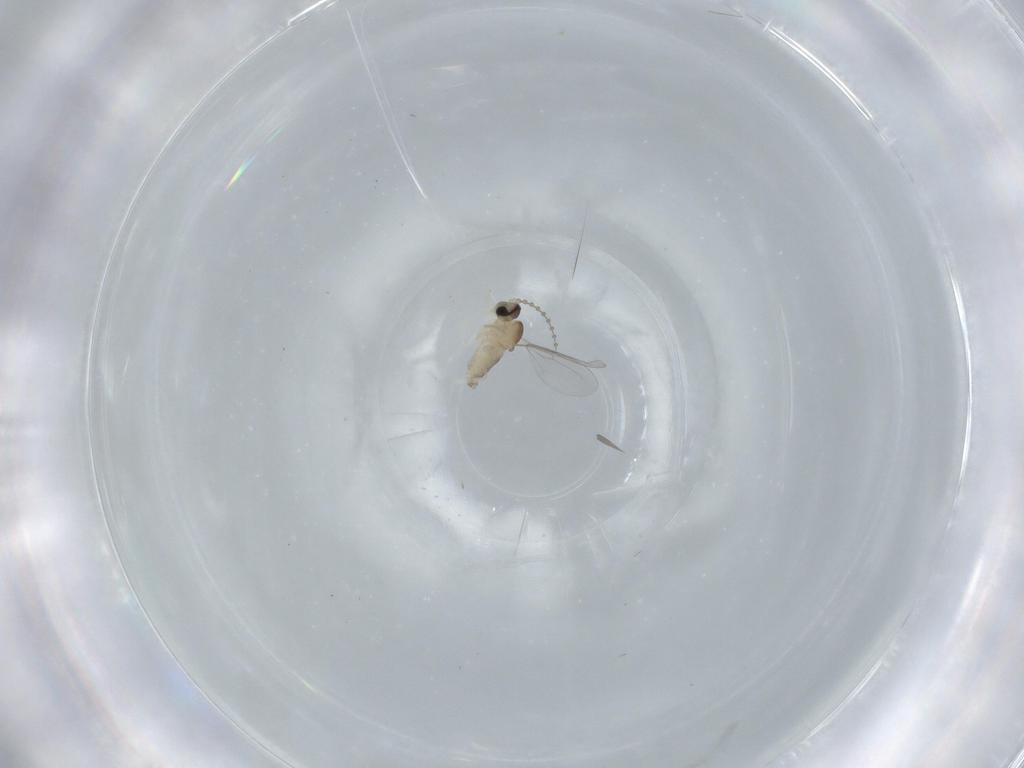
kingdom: Animalia
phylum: Arthropoda
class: Insecta
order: Diptera
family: Cecidomyiidae
